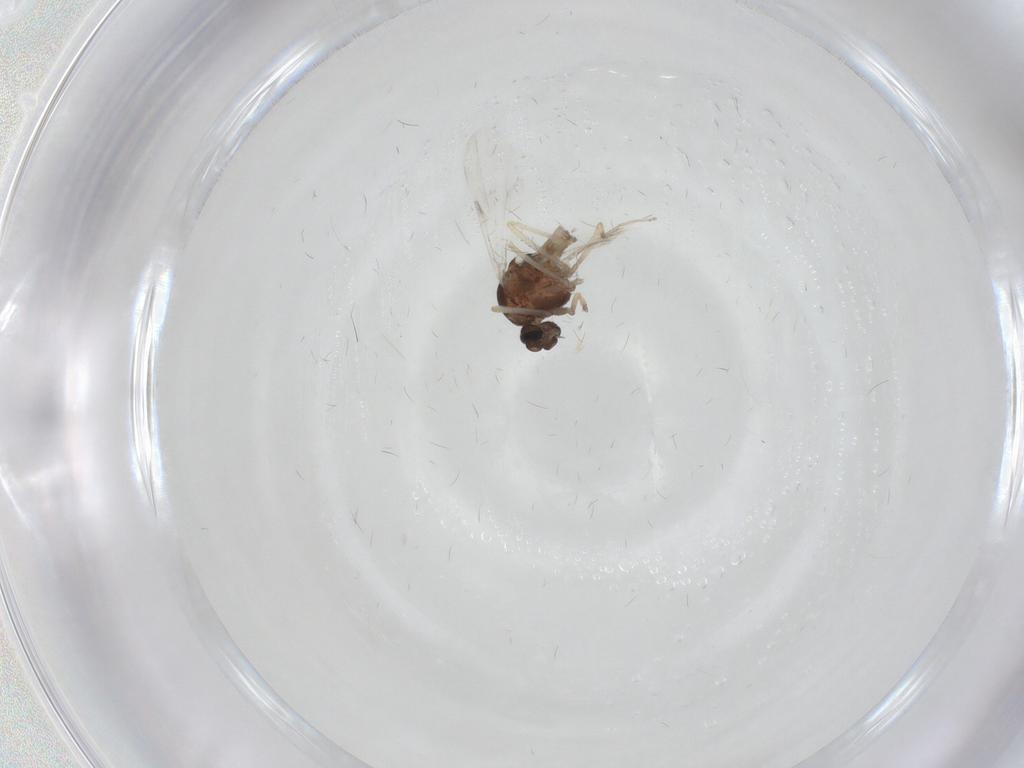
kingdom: Animalia
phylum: Arthropoda
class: Insecta
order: Diptera
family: Ceratopogonidae
